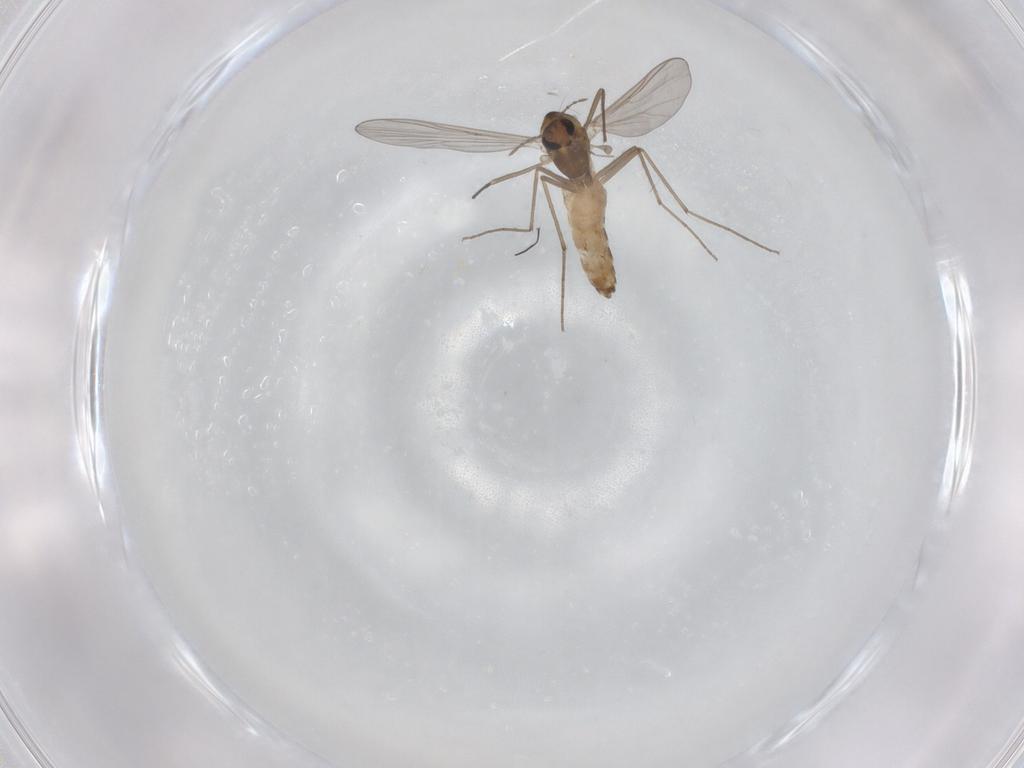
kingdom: Animalia
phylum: Arthropoda
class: Insecta
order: Diptera
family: Chironomidae
